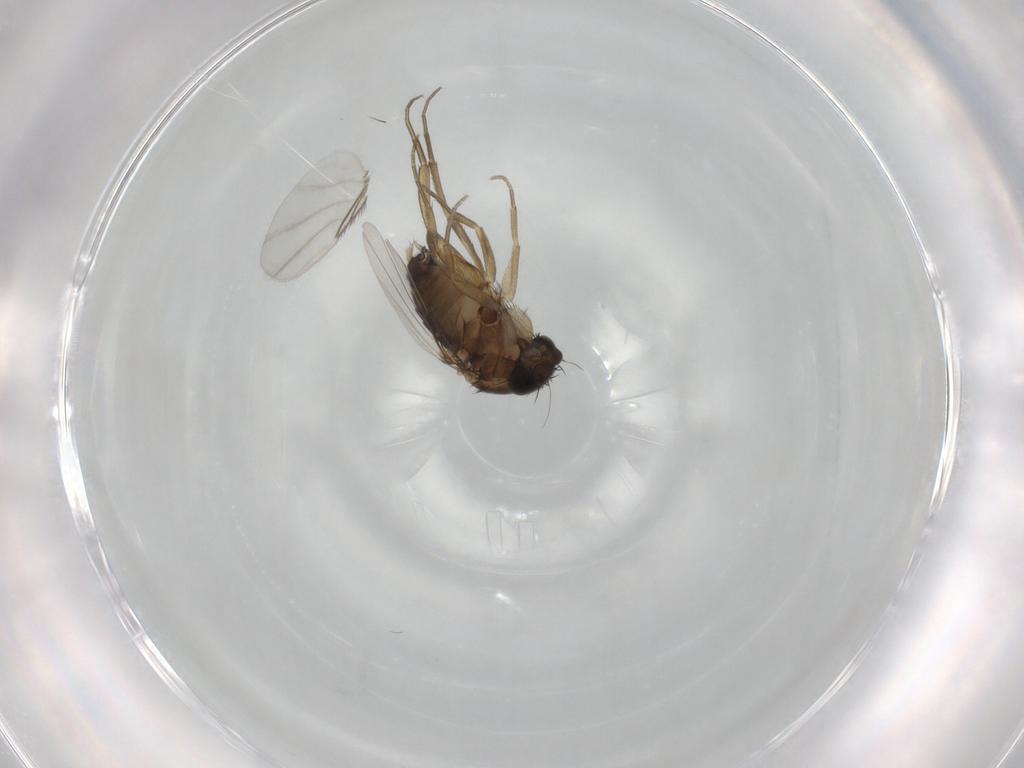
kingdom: Animalia
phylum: Arthropoda
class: Insecta
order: Diptera
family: Phoridae
